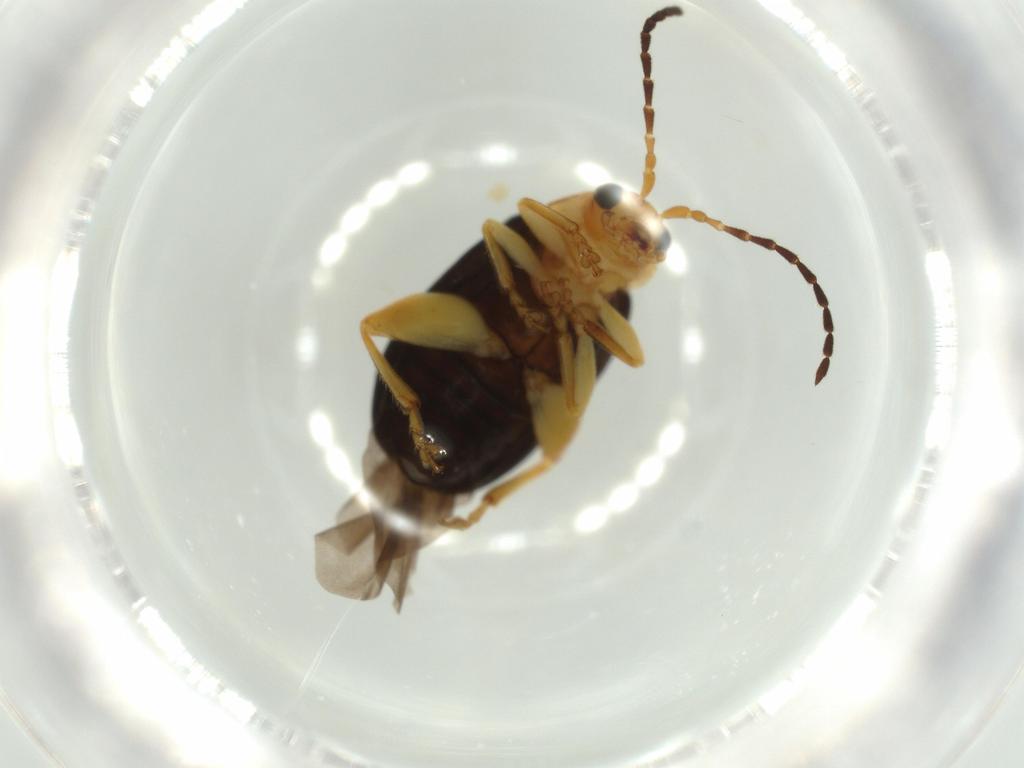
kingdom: Animalia
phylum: Arthropoda
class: Insecta
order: Coleoptera
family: Chrysomelidae
